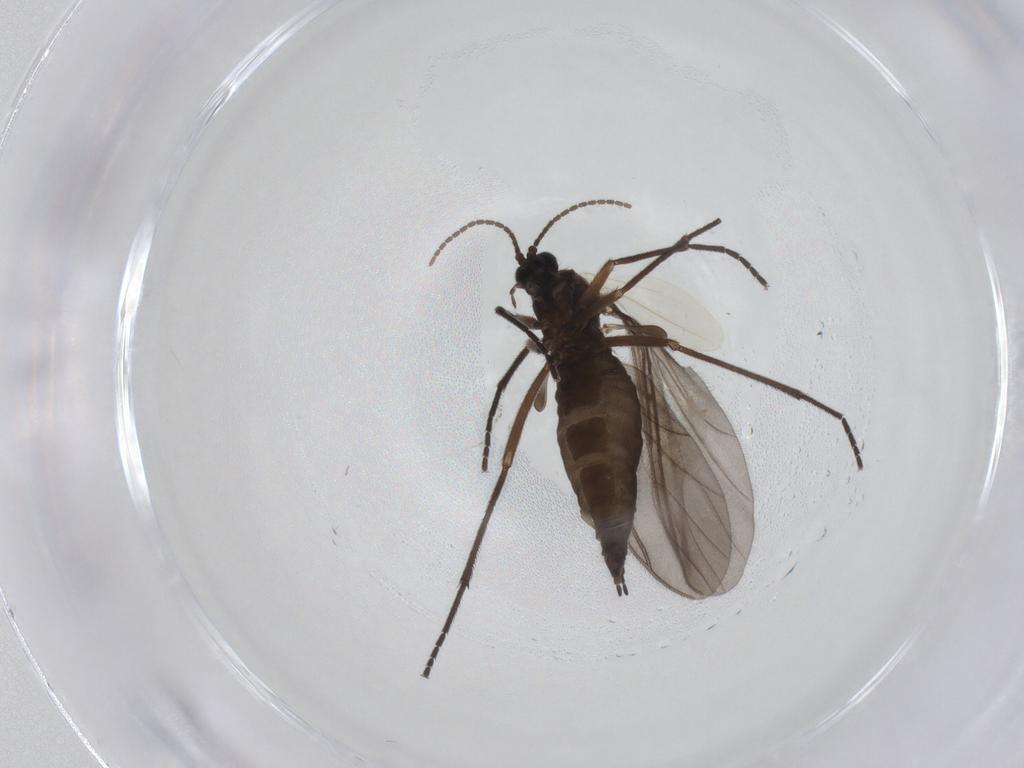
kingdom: Animalia
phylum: Arthropoda
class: Insecta
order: Diptera
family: Sciaridae
